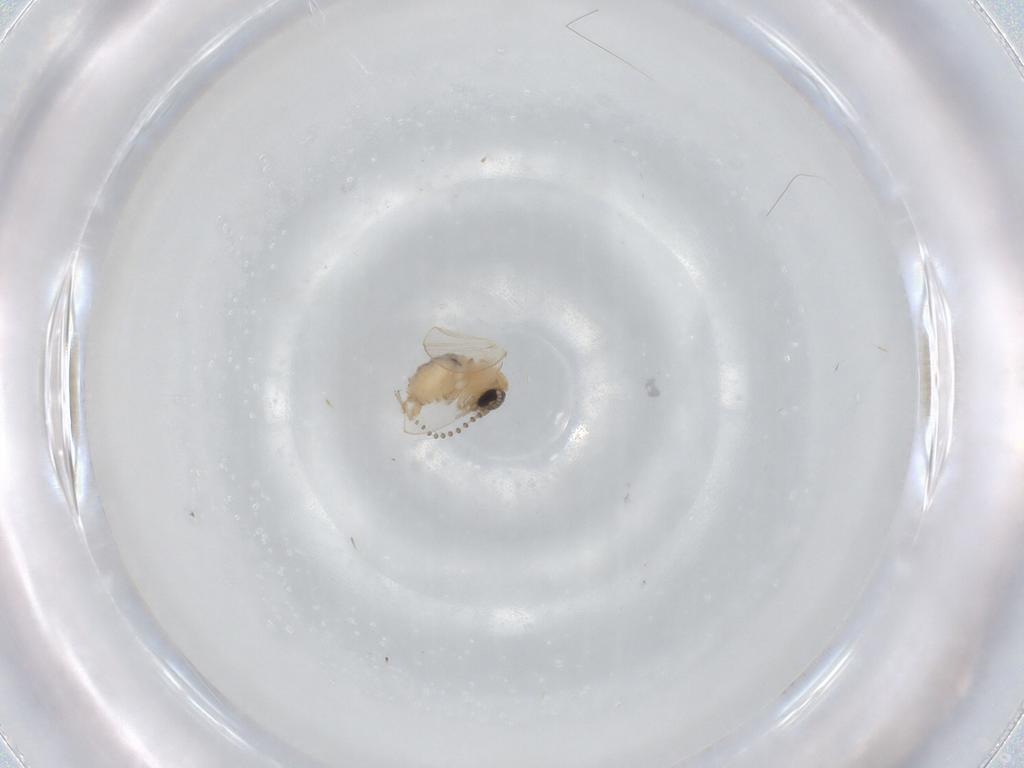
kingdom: Animalia
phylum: Arthropoda
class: Insecta
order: Diptera
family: Psychodidae
